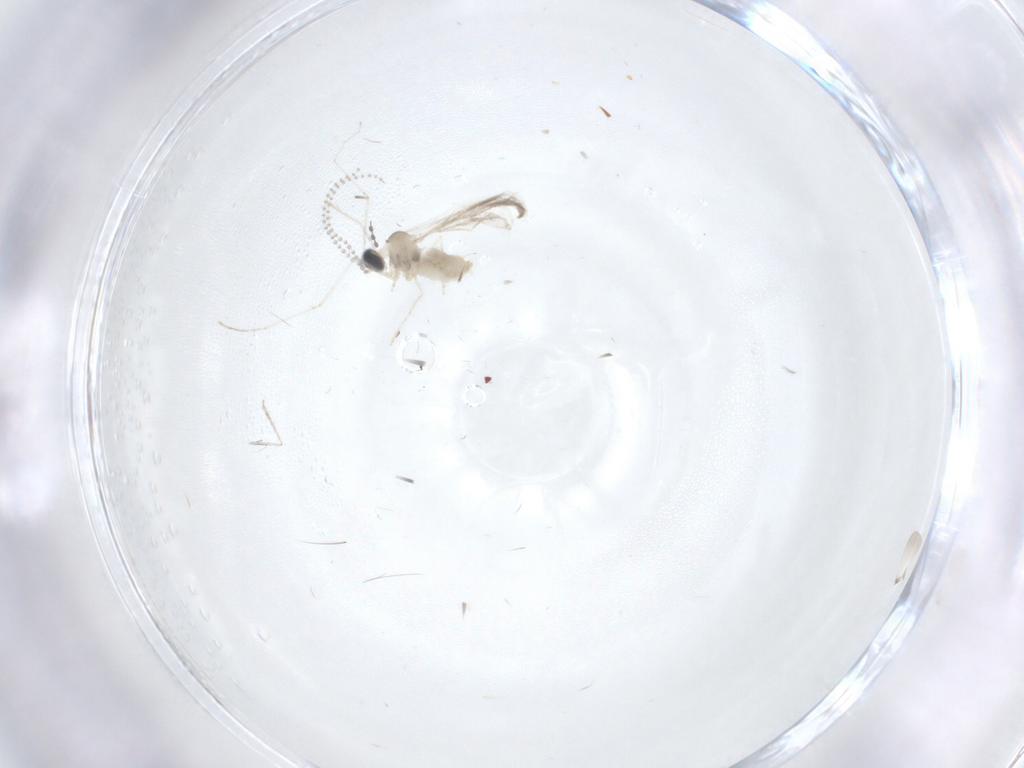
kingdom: Animalia
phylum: Arthropoda
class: Insecta
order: Diptera
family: Cecidomyiidae
